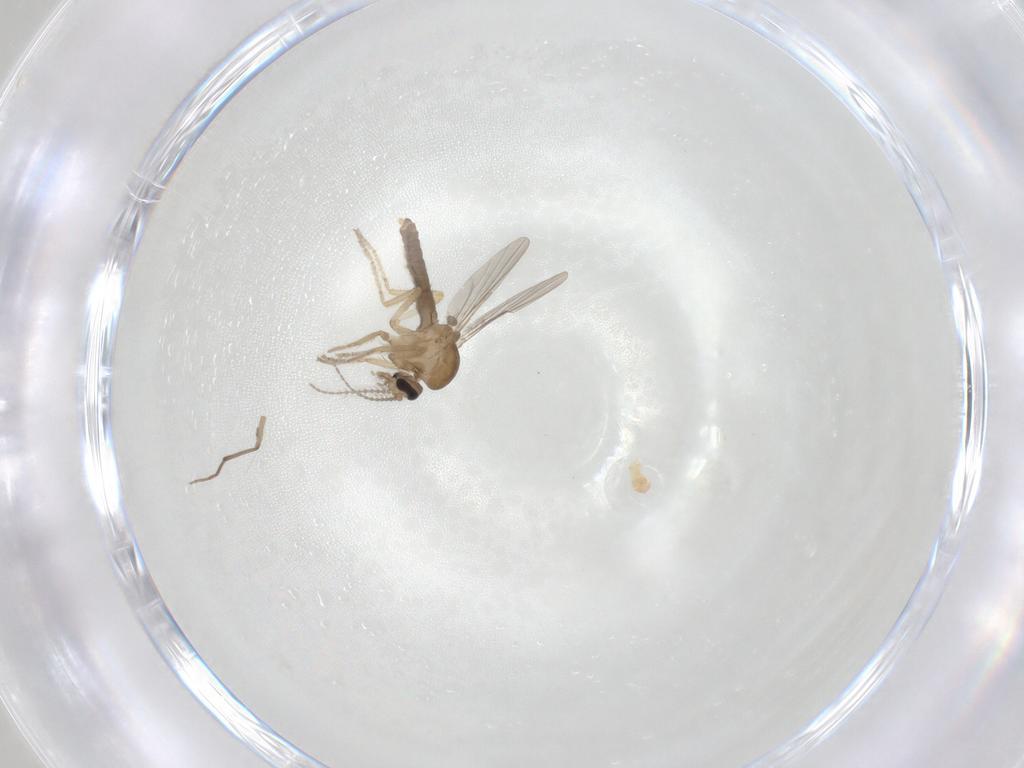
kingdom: Animalia
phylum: Arthropoda
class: Insecta
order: Diptera
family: Ceratopogonidae
